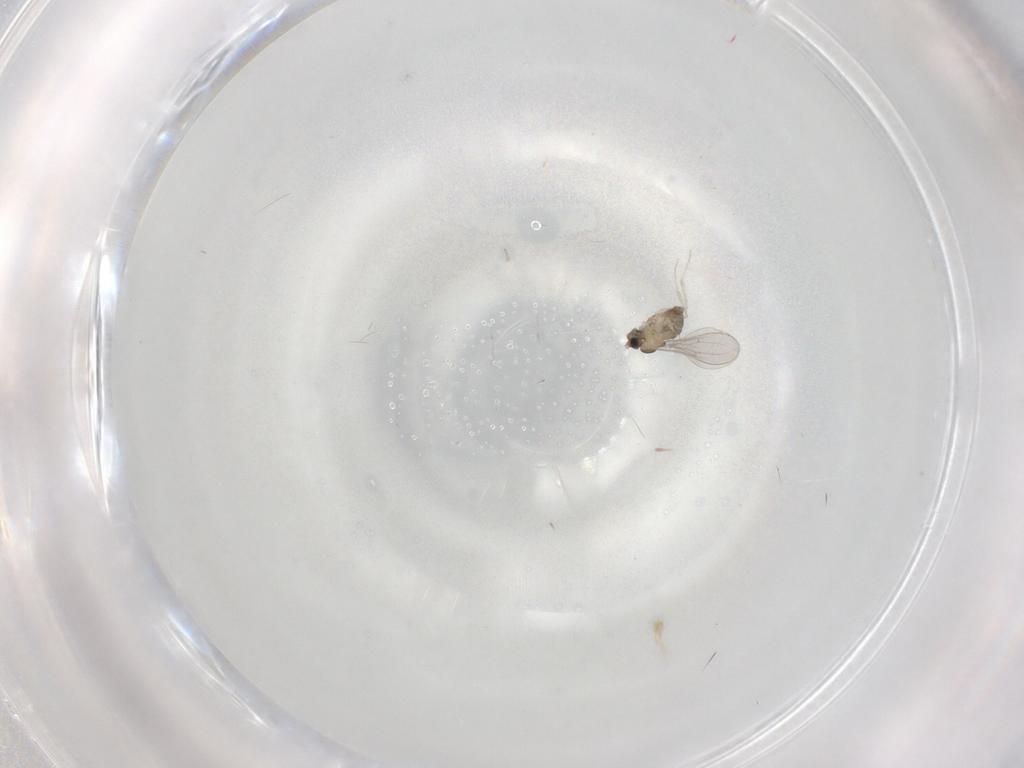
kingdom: Animalia
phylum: Arthropoda
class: Insecta
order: Diptera
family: Cecidomyiidae
